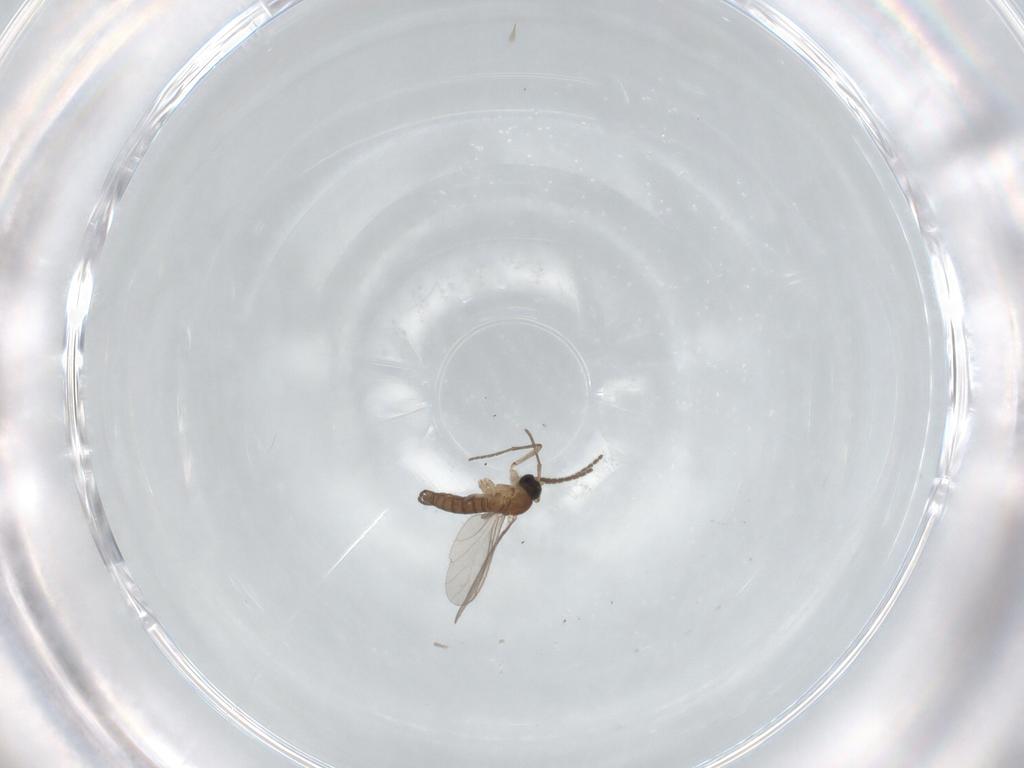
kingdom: Animalia
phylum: Arthropoda
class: Insecta
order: Diptera
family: Sciaridae
